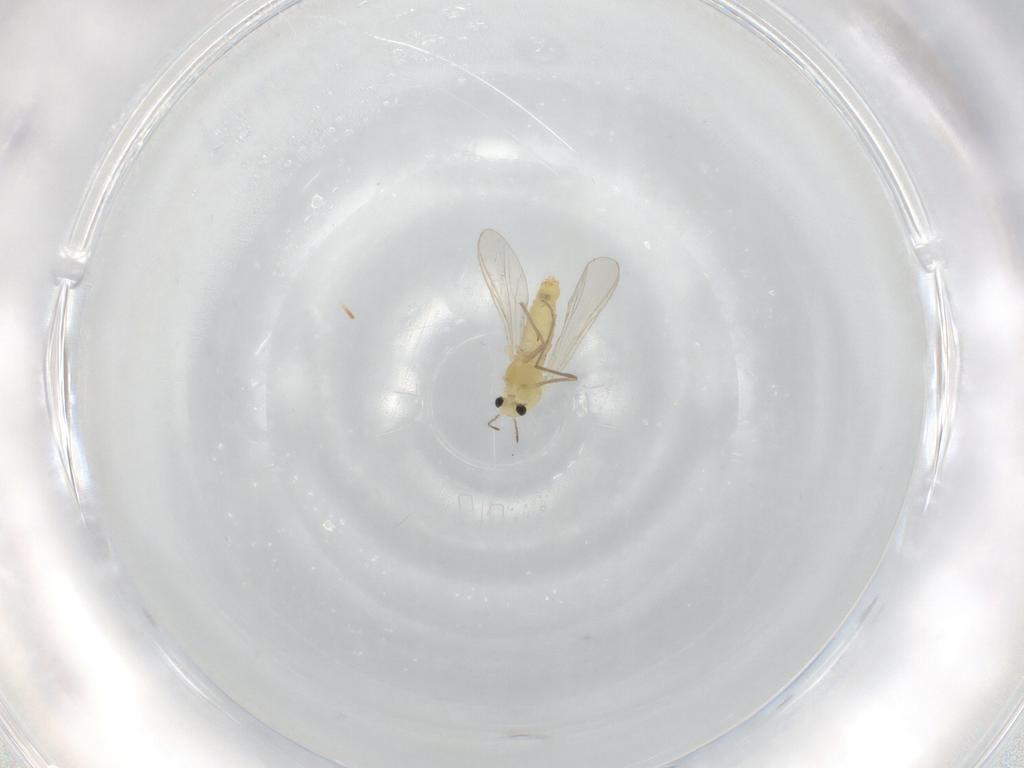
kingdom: Animalia
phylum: Arthropoda
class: Insecta
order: Diptera
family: Chironomidae
